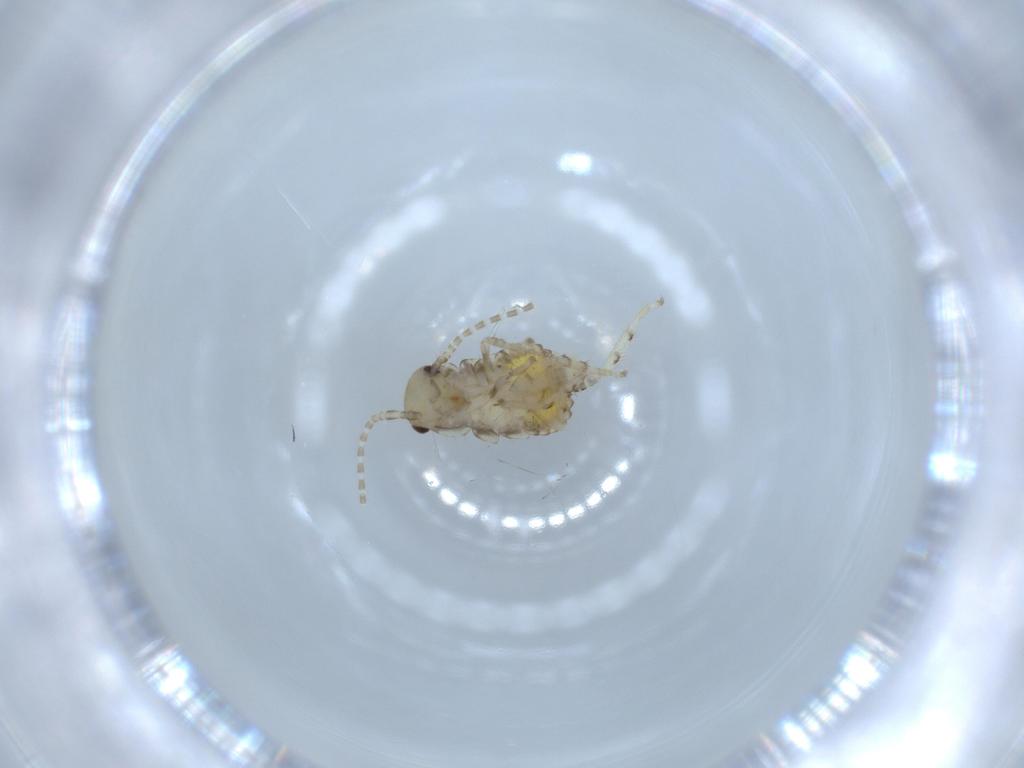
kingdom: Animalia
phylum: Arthropoda
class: Insecta
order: Blattodea
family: Ectobiidae
